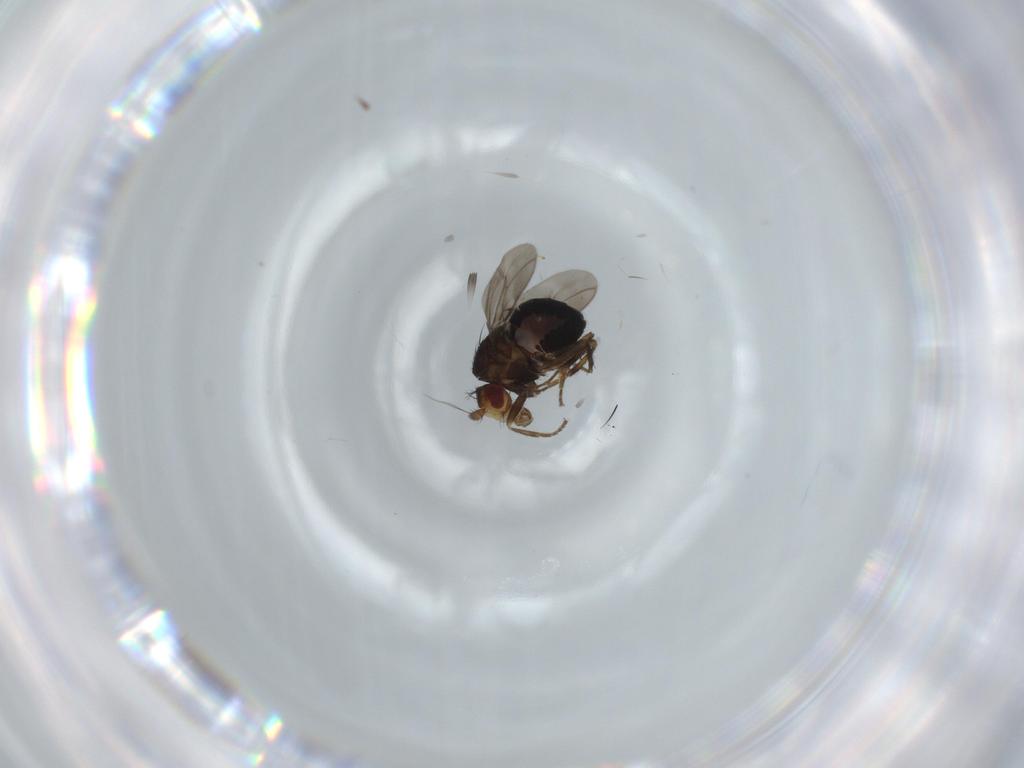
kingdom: Animalia
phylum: Arthropoda
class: Insecta
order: Diptera
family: Sphaeroceridae
